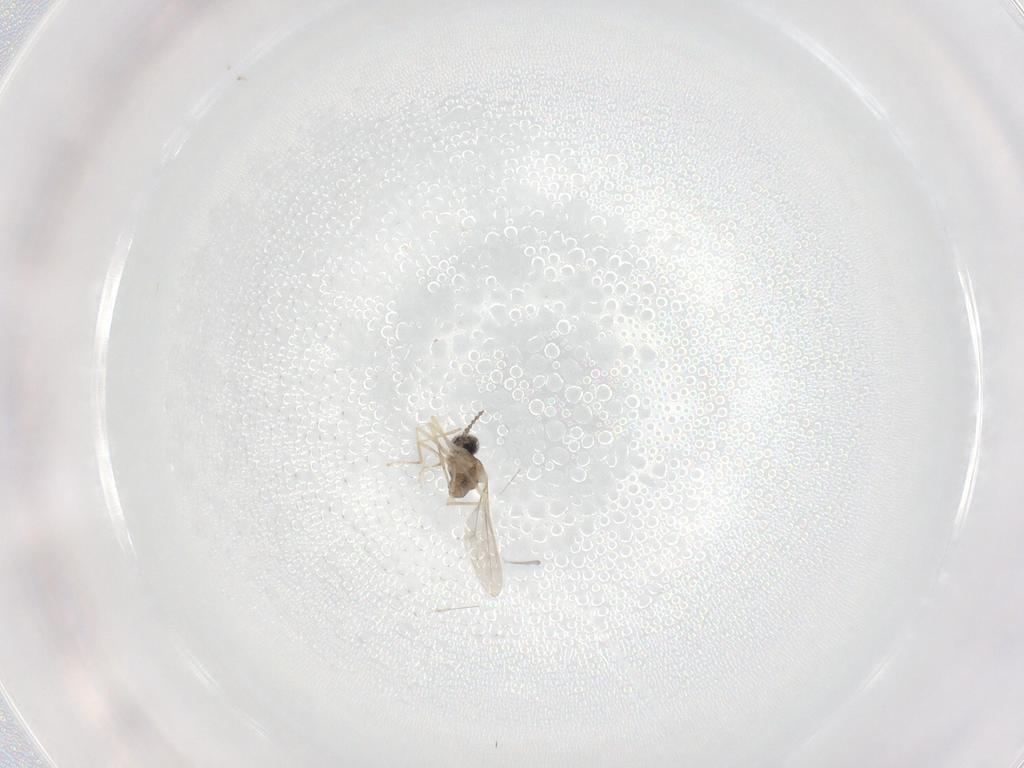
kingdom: Animalia
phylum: Arthropoda
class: Insecta
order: Diptera
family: Cecidomyiidae
